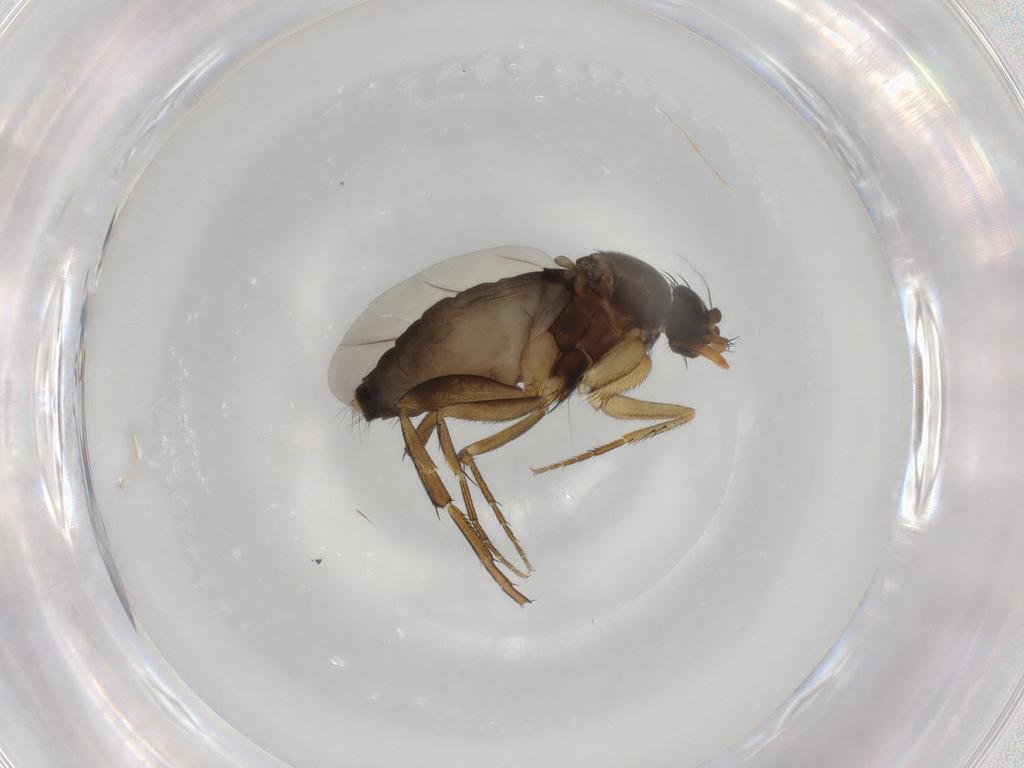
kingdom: Animalia
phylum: Arthropoda
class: Insecta
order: Diptera
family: Phoridae
